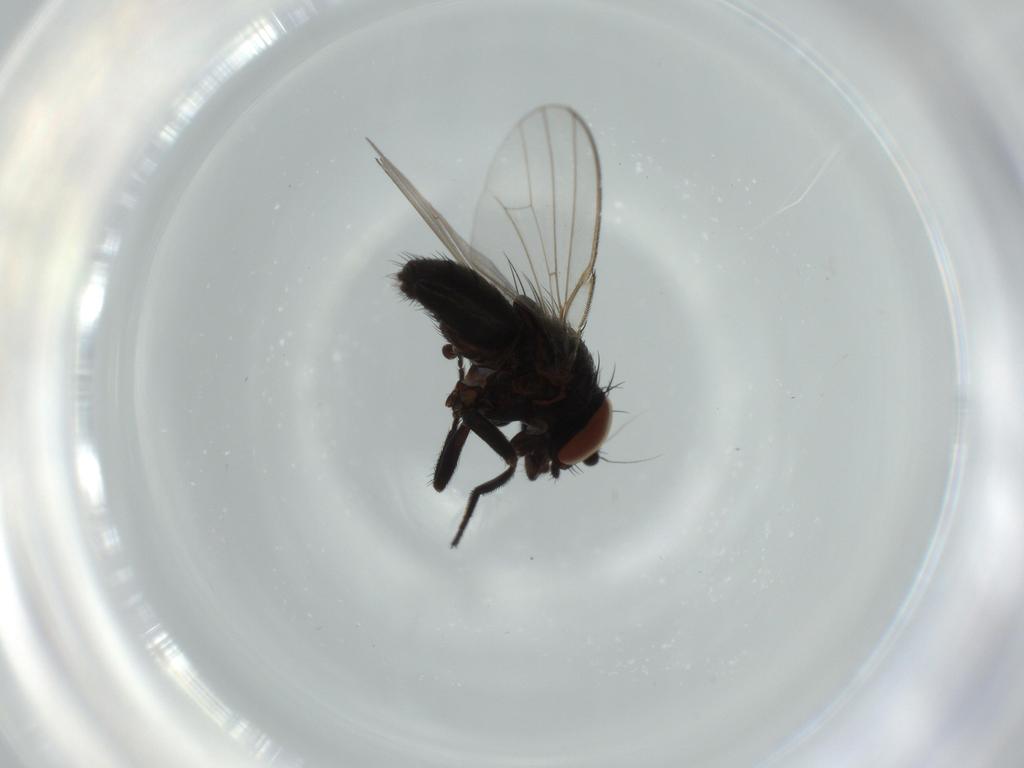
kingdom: Animalia
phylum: Arthropoda
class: Insecta
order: Diptera
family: Milichiidae
